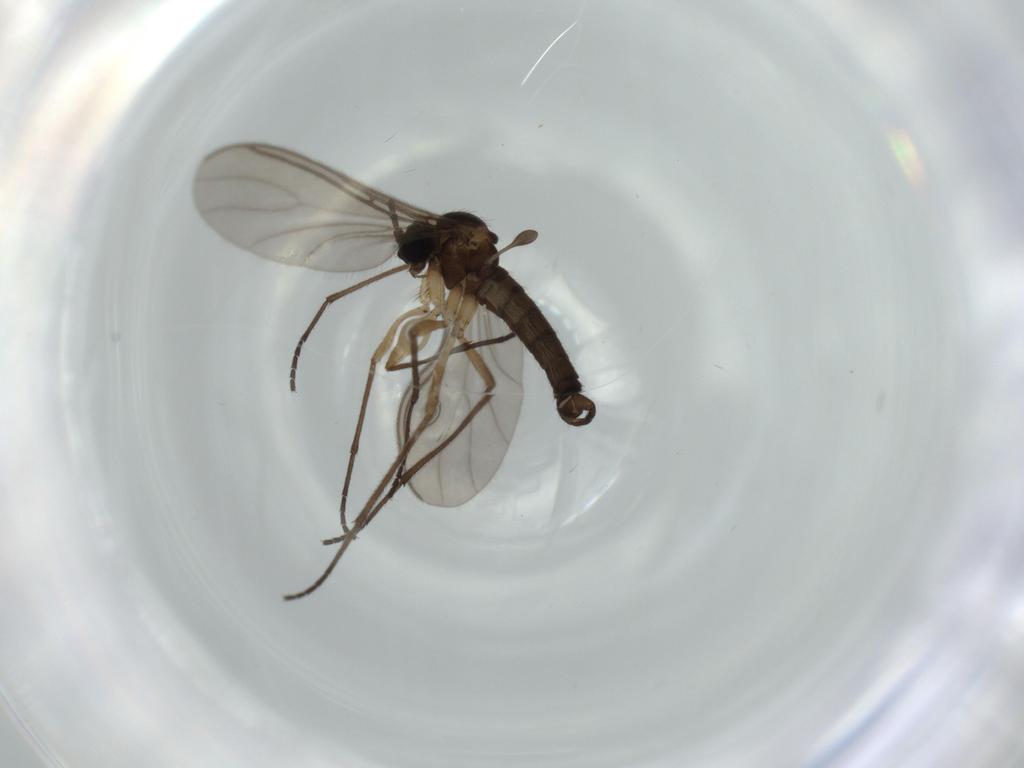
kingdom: Animalia
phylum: Arthropoda
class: Insecta
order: Diptera
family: Sciaridae
